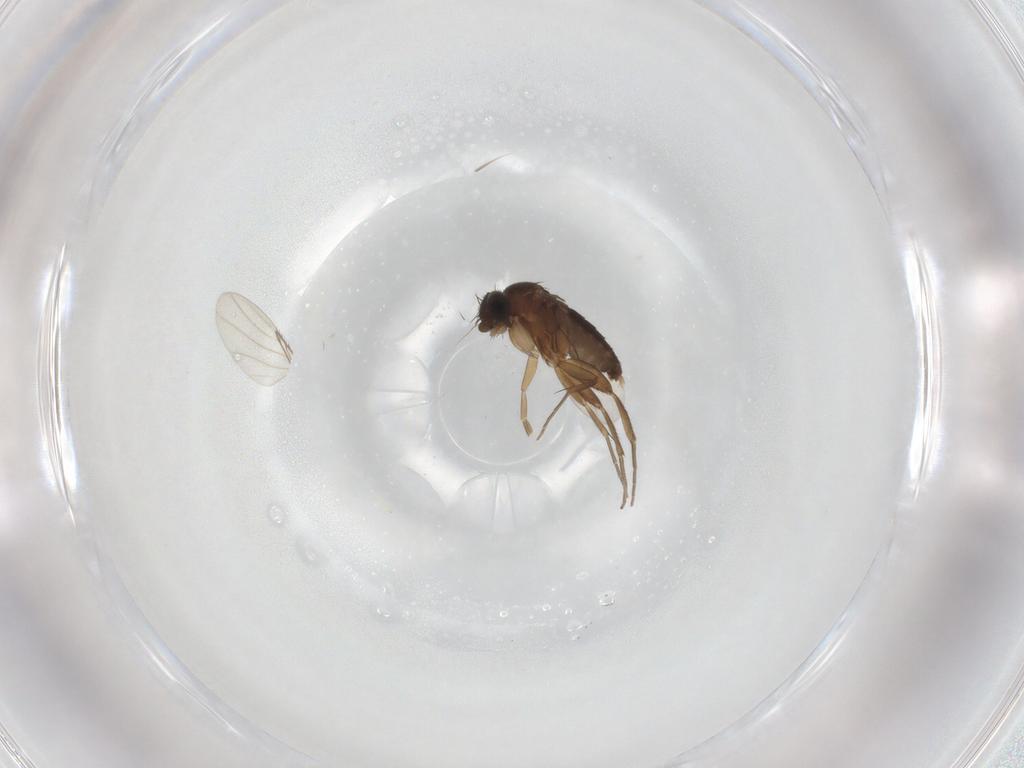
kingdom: Animalia
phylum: Arthropoda
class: Insecta
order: Diptera
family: Phoridae
